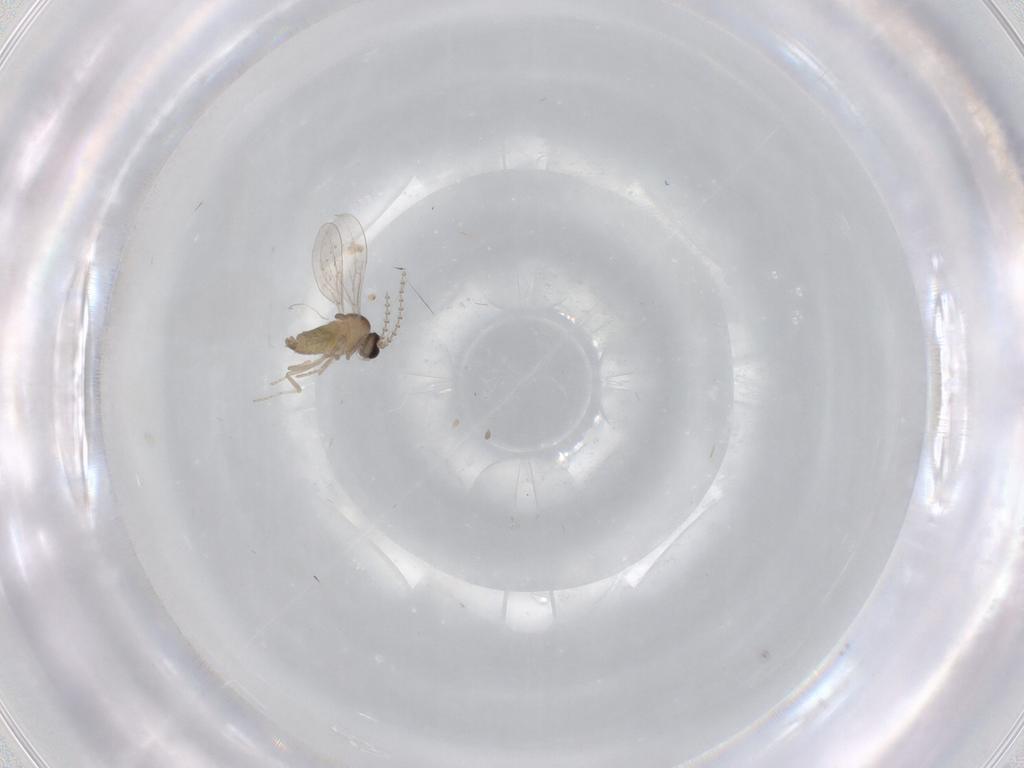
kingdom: Animalia
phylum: Arthropoda
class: Insecta
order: Diptera
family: Cecidomyiidae
